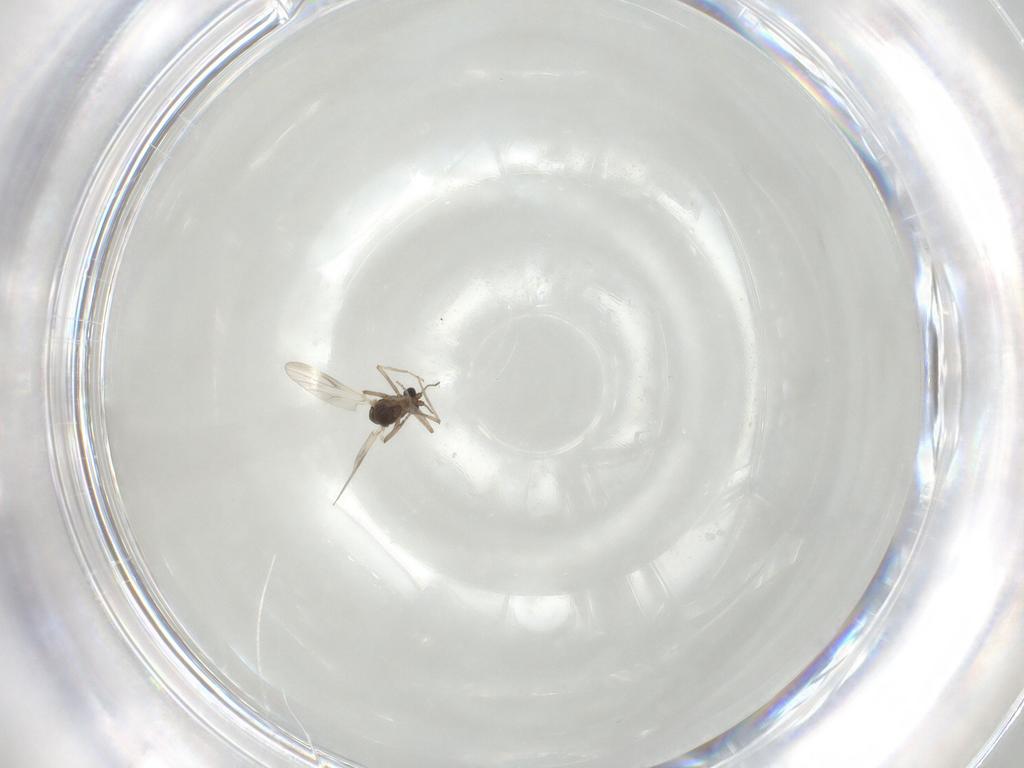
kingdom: Animalia
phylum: Arthropoda
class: Insecta
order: Diptera
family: Ceratopogonidae
